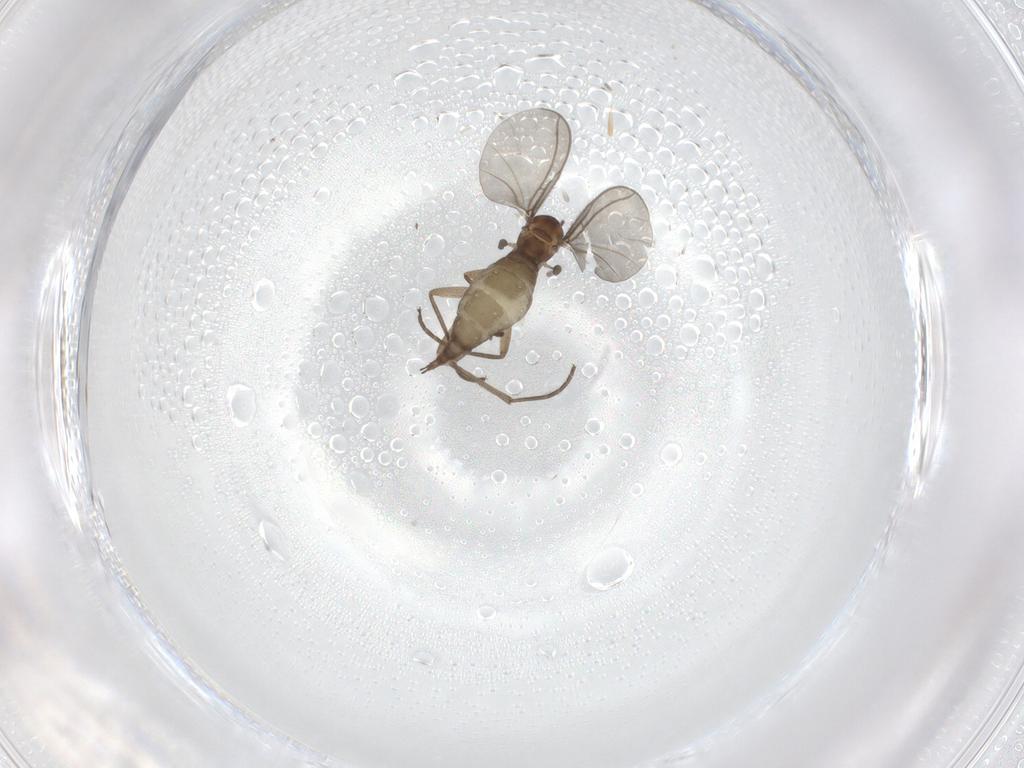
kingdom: Animalia
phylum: Arthropoda
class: Insecta
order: Diptera
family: Sciaridae
